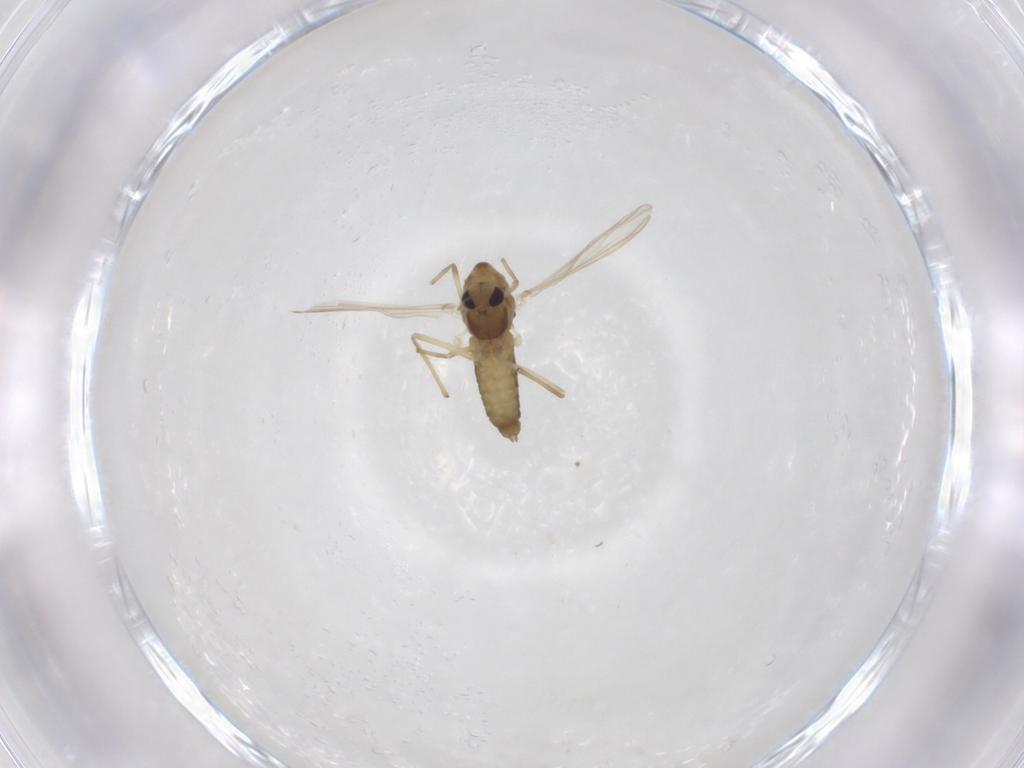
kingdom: Animalia
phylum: Arthropoda
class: Insecta
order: Diptera
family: Chironomidae
